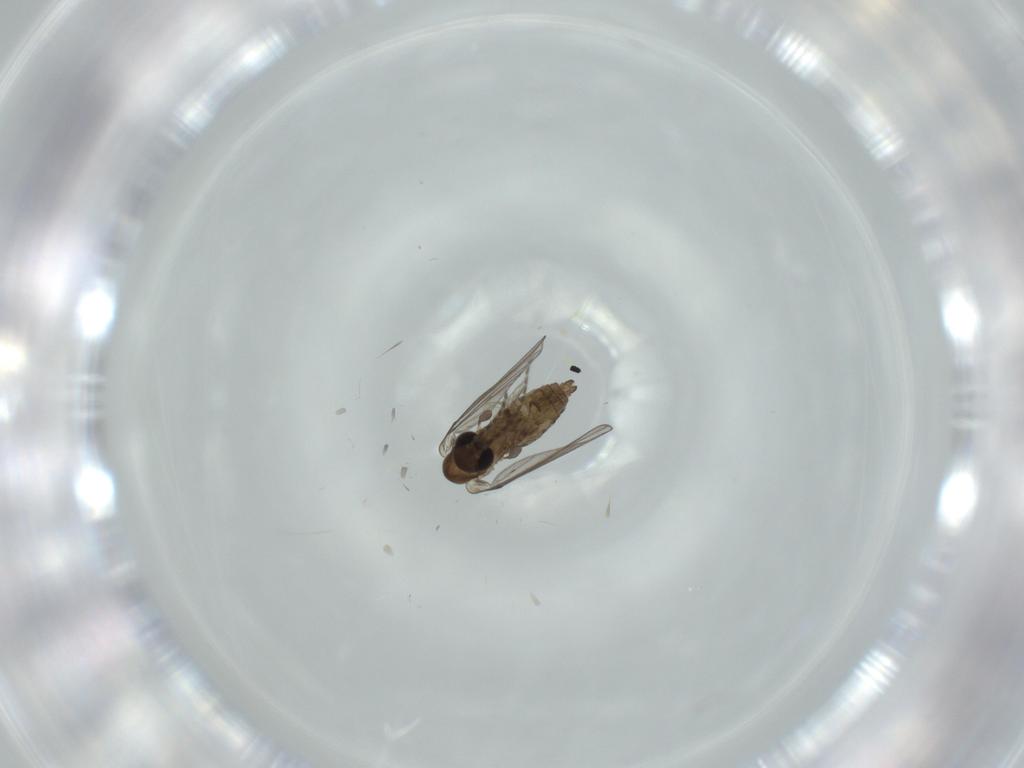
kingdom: Animalia
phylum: Arthropoda
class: Insecta
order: Diptera
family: Psychodidae
